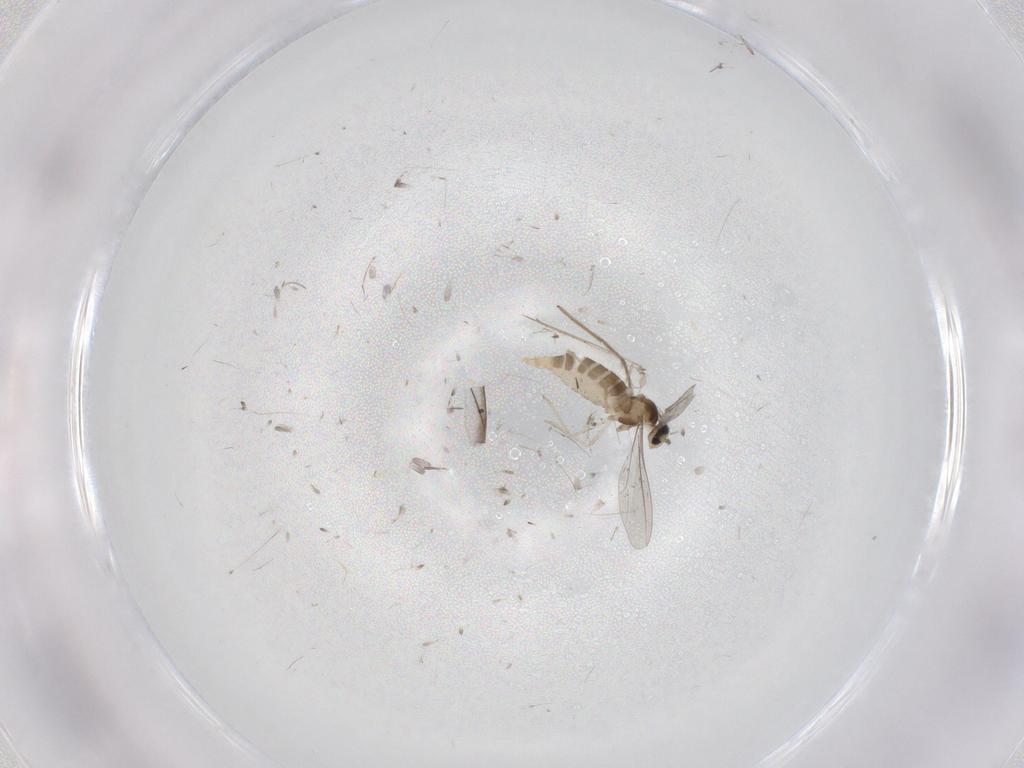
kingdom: Animalia
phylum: Arthropoda
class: Insecta
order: Diptera
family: Cecidomyiidae
